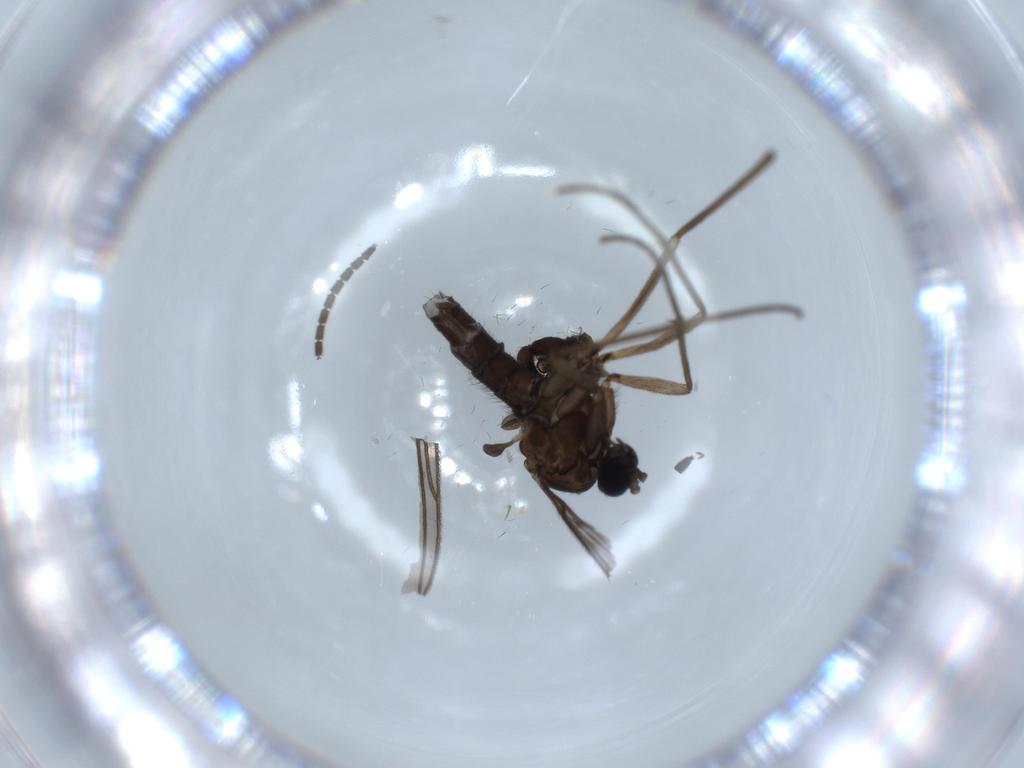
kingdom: Animalia
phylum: Arthropoda
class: Insecta
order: Diptera
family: Sciaridae
